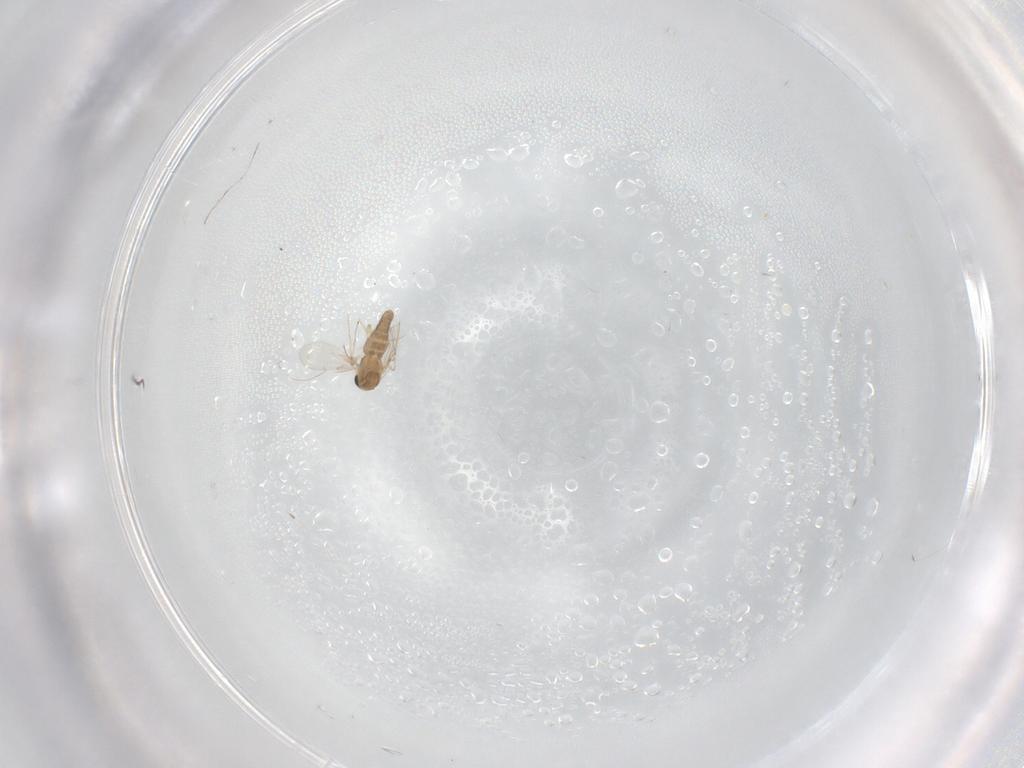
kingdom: Animalia
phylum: Arthropoda
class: Insecta
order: Diptera
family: Ceratopogonidae
